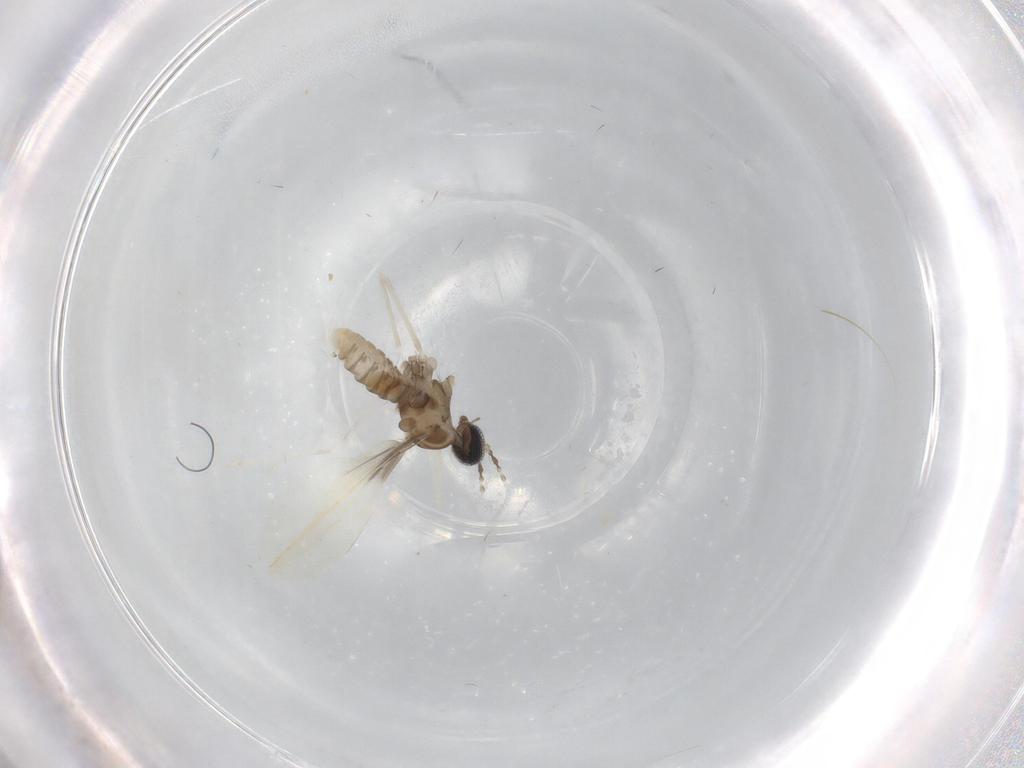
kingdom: Animalia
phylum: Arthropoda
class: Insecta
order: Diptera
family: Cecidomyiidae
